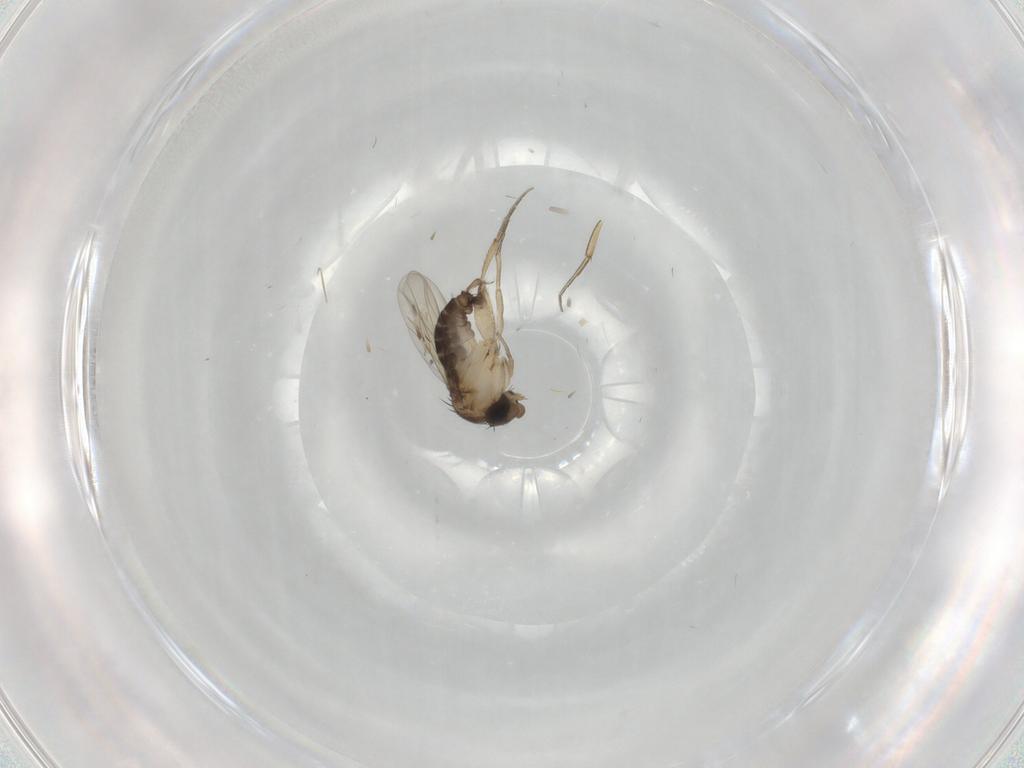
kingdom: Animalia
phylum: Arthropoda
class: Insecta
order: Diptera
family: Phoridae
